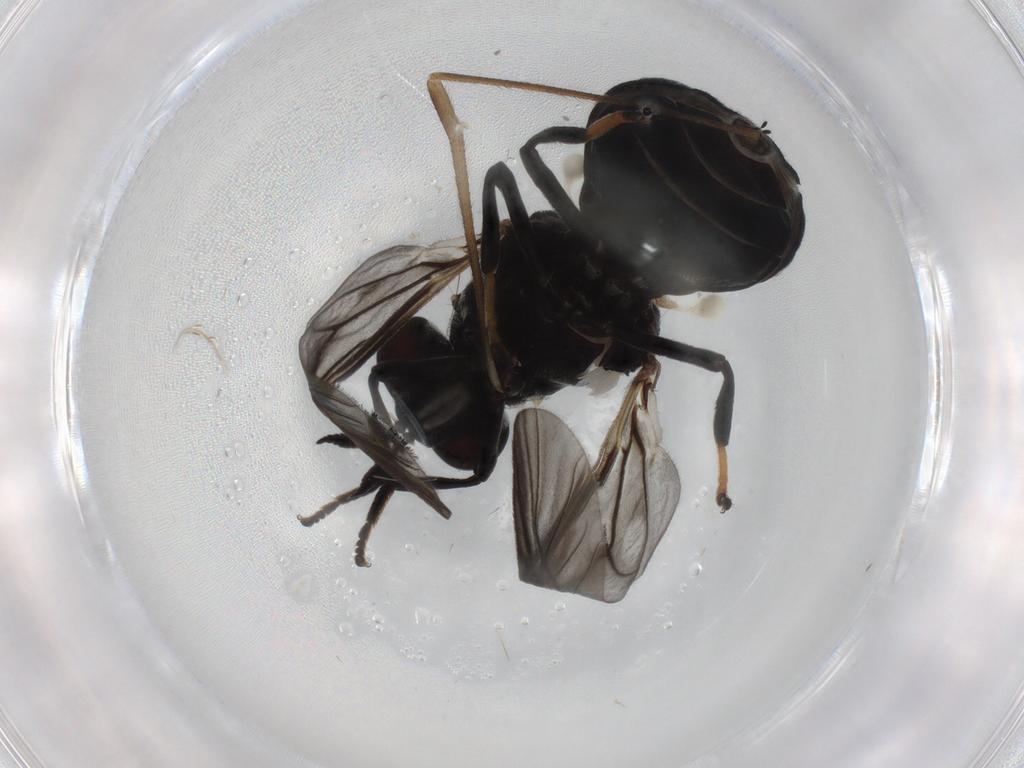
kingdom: Animalia
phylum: Arthropoda
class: Insecta
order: Diptera
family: Stratiomyidae
